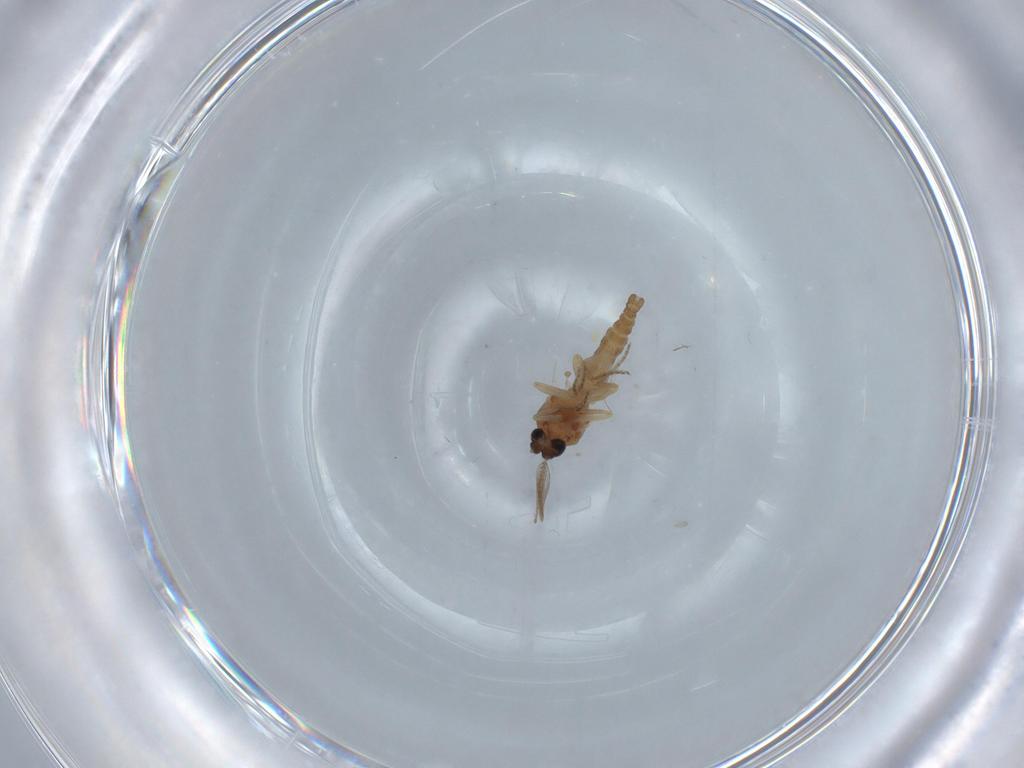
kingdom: Animalia
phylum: Arthropoda
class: Insecta
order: Diptera
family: Ceratopogonidae
